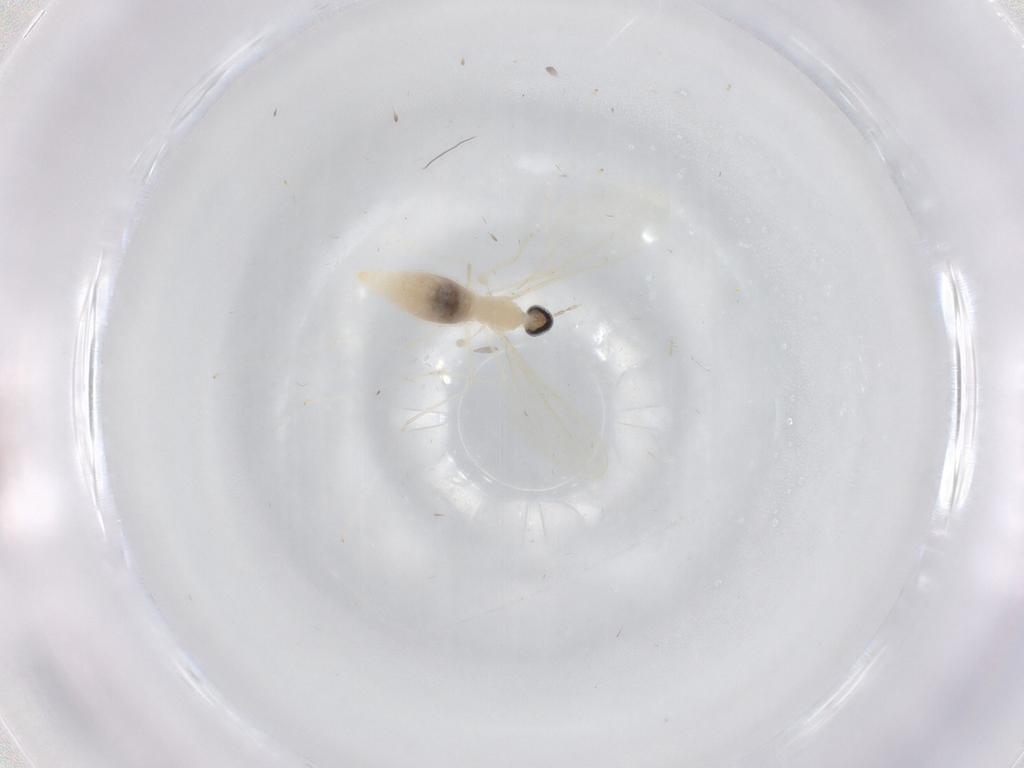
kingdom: Animalia
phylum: Arthropoda
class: Insecta
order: Diptera
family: Cecidomyiidae
